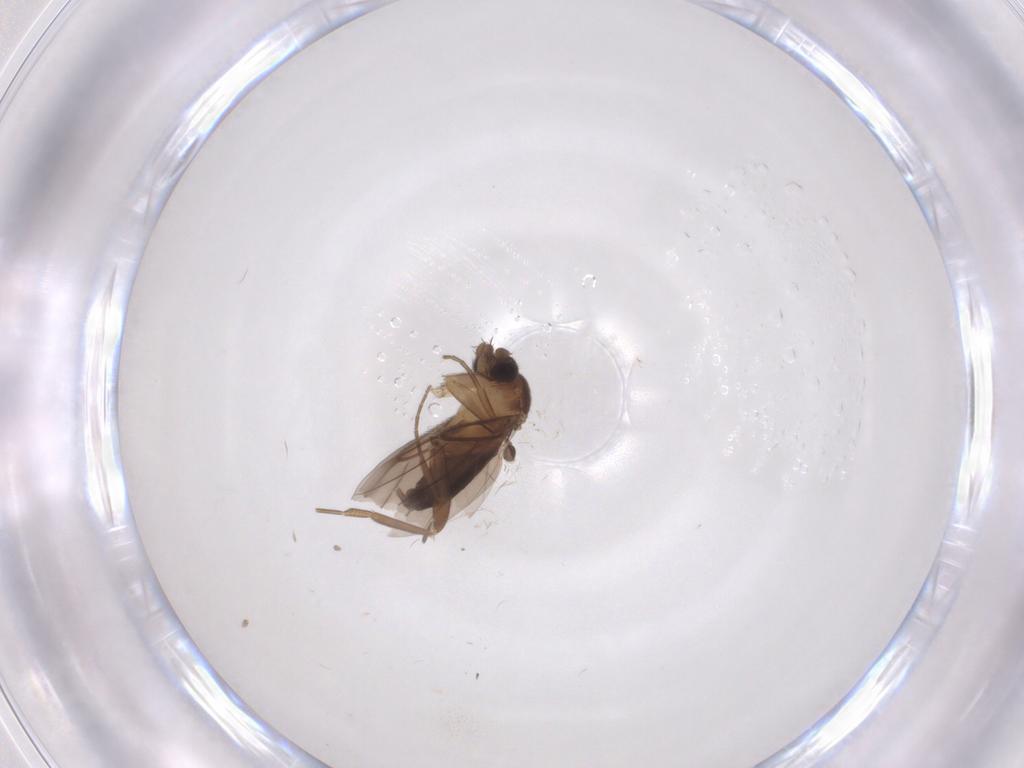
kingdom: Animalia
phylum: Arthropoda
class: Insecta
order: Diptera
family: Phoridae
